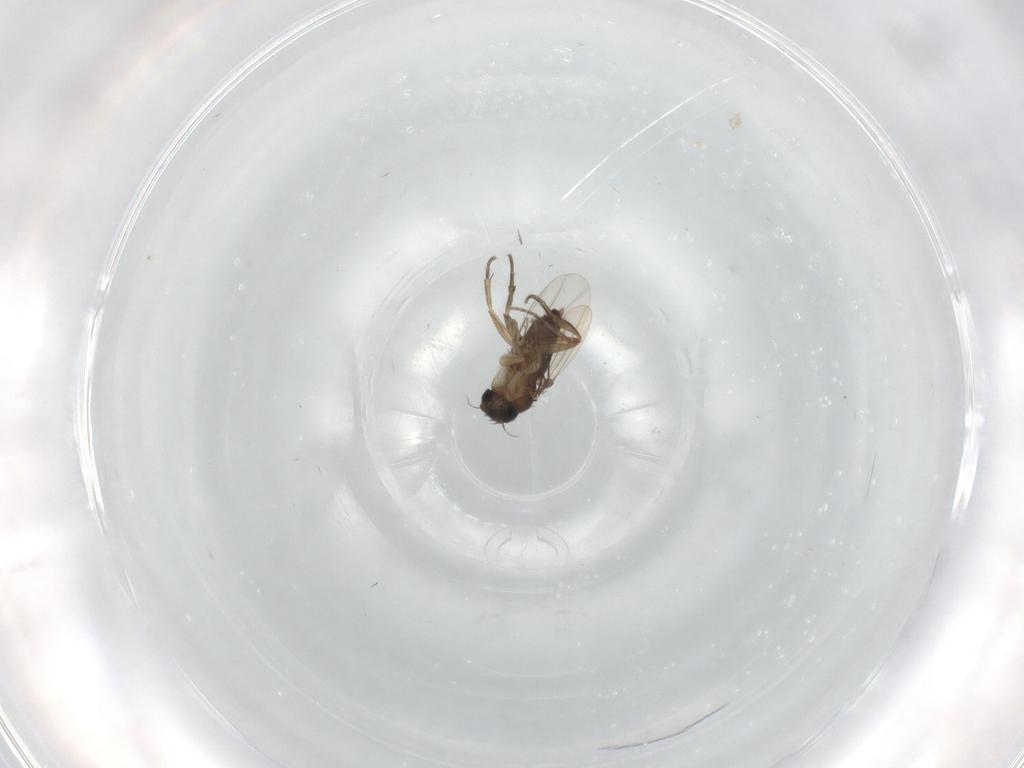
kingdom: Animalia
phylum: Arthropoda
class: Insecta
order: Diptera
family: Phoridae
